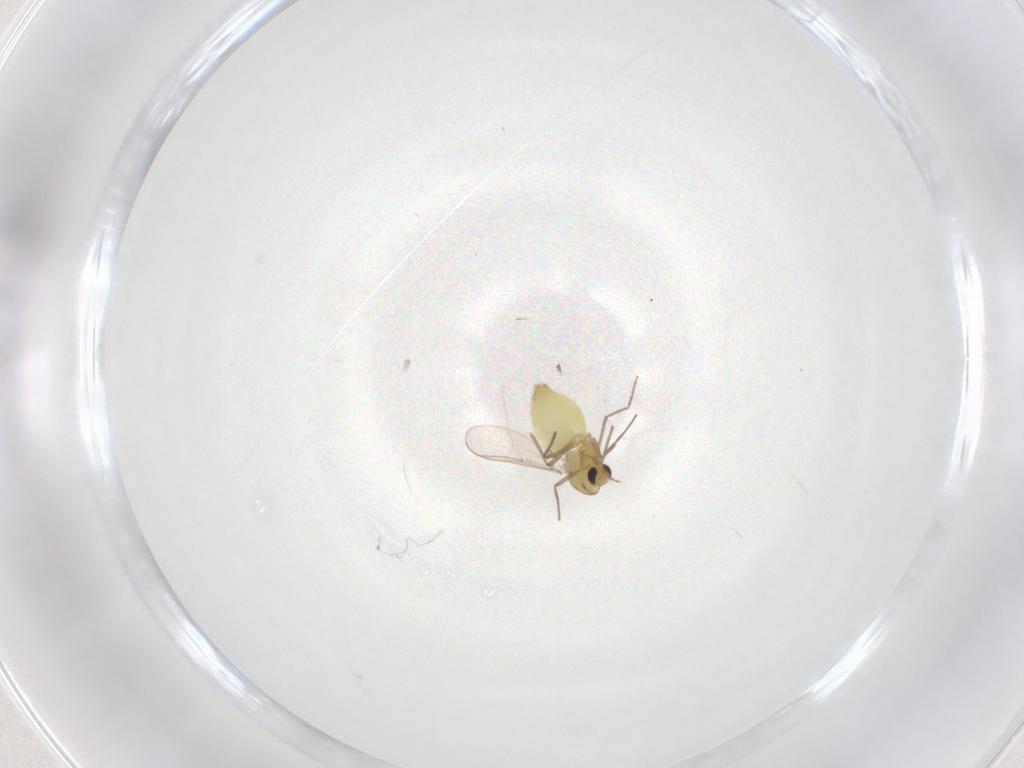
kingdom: Animalia
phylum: Arthropoda
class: Insecta
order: Diptera
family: Chironomidae
